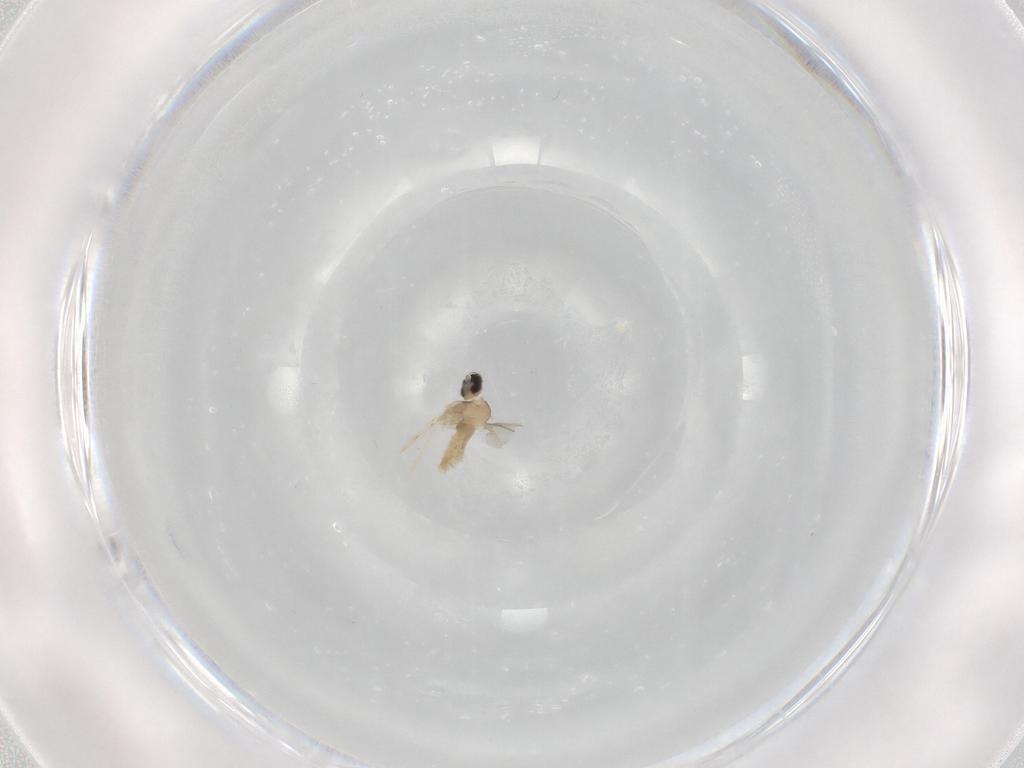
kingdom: Animalia
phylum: Arthropoda
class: Insecta
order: Diptera
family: Cecidomyiidae
